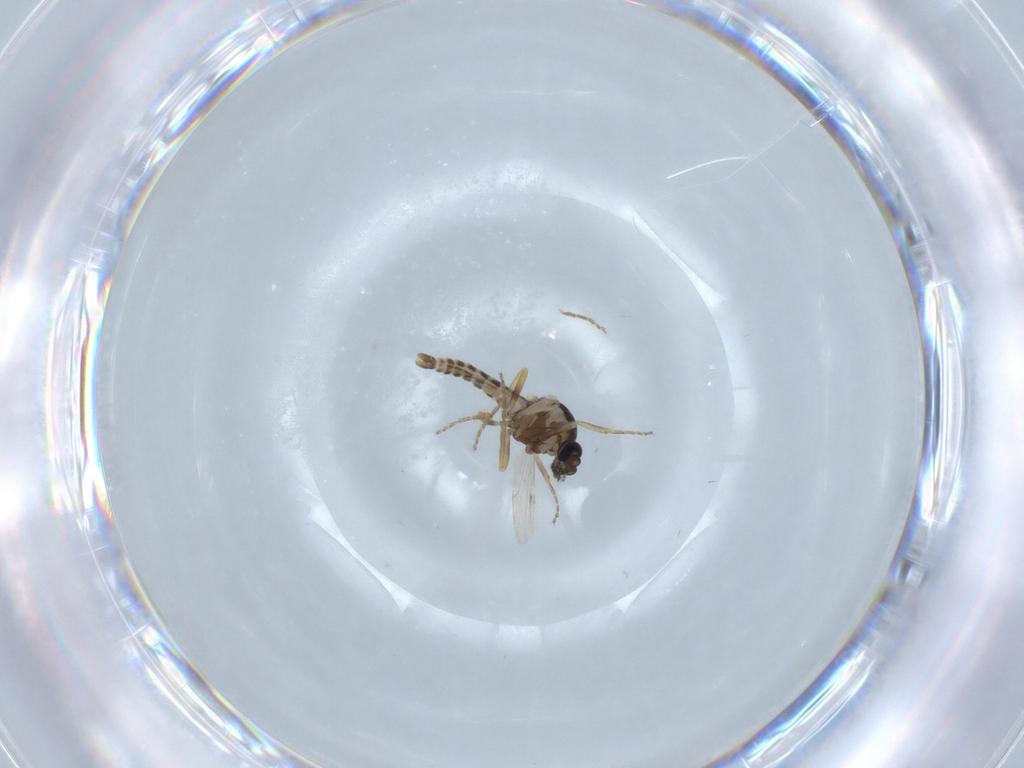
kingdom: Animalia
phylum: Arthropoda
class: Insecta
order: Diptera
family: Ceratopogonidae
